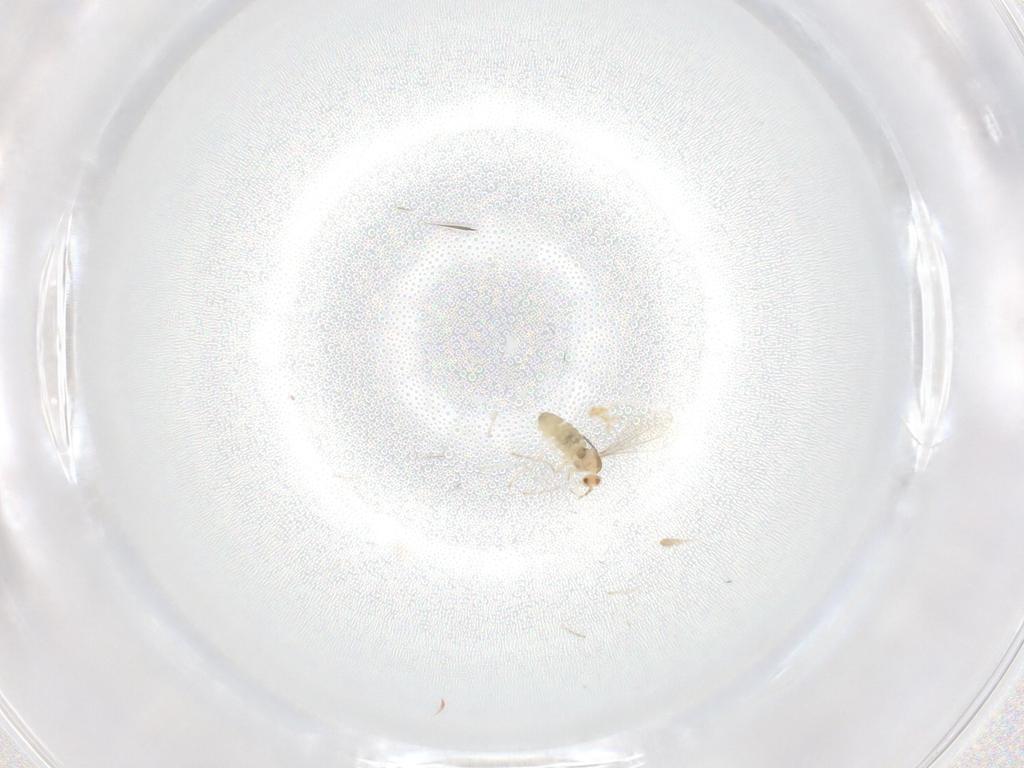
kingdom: Animalia
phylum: Arthropoda
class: Insecta
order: Diptera
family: Cecidomyiidae
